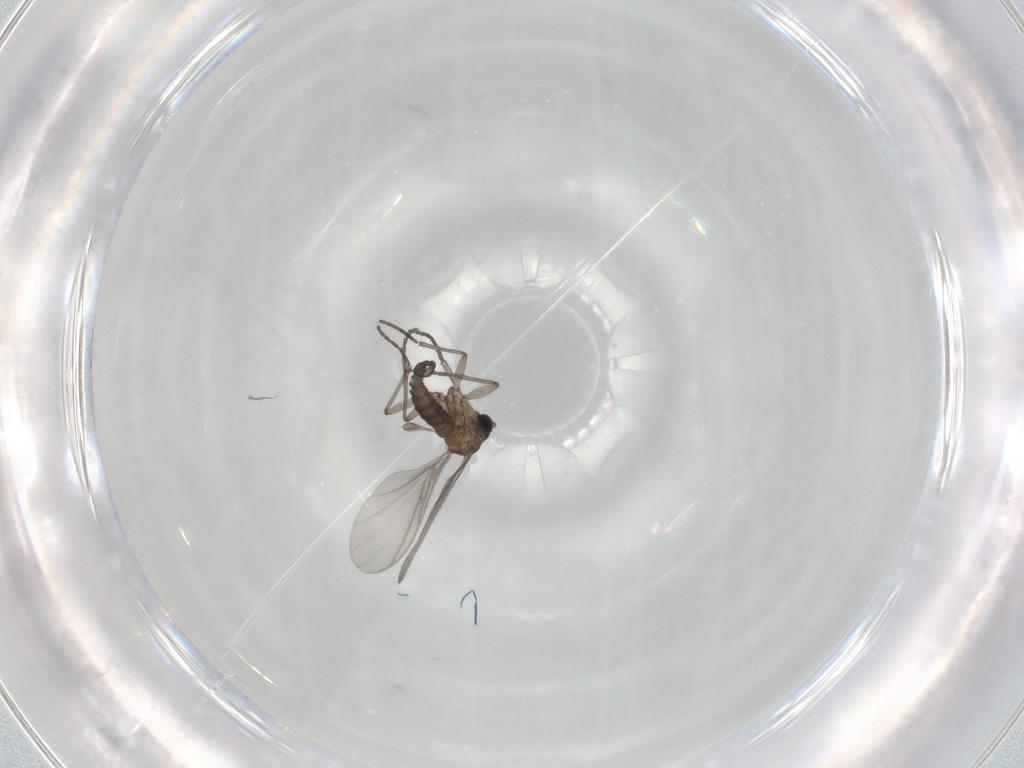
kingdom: Animalia
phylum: Arthropoda
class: Insecta
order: Diptera
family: Sciaridae
